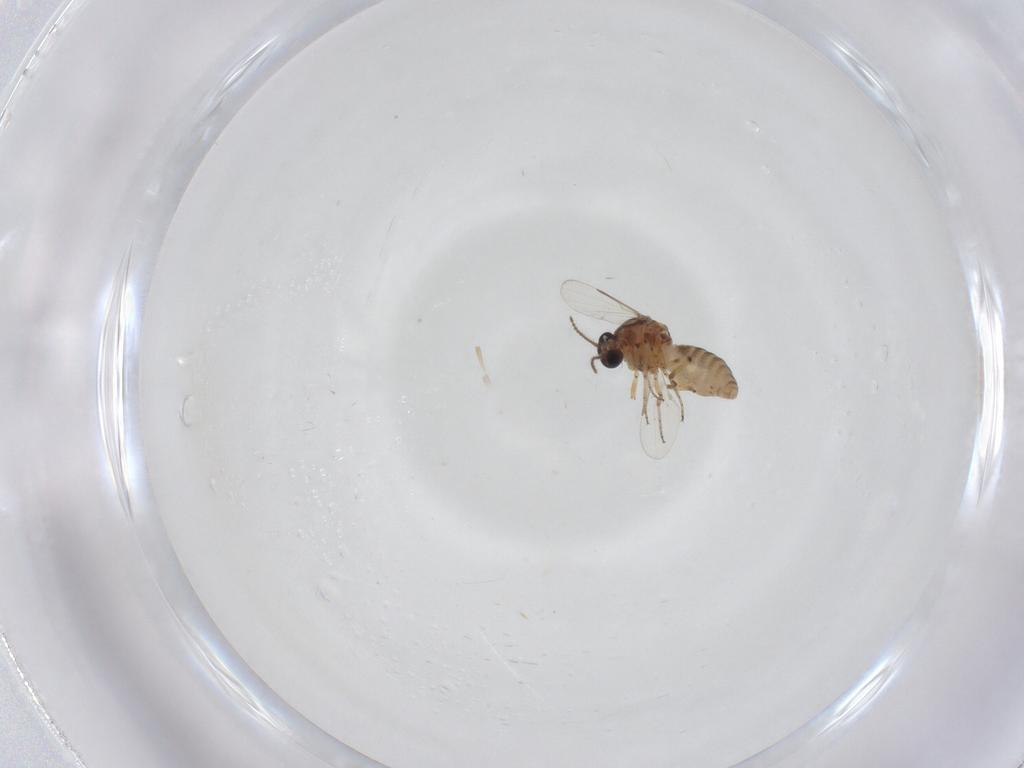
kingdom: Animalia
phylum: Arthropoda
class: Insecta
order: Diptera
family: Ceratopogonidae
